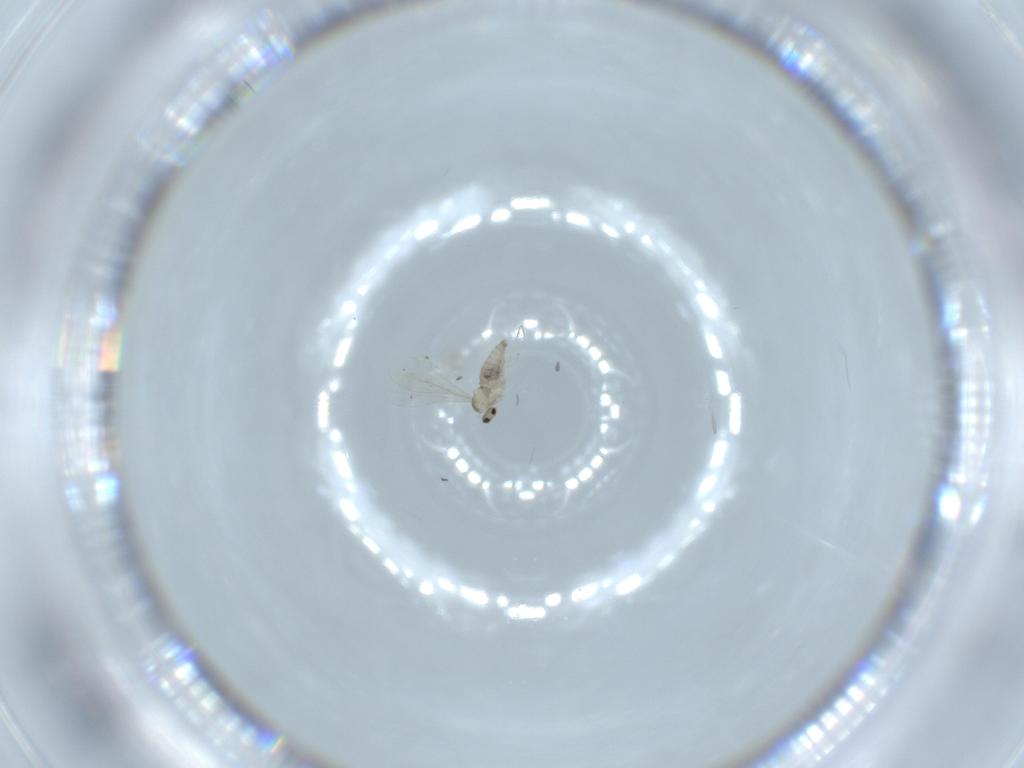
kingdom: Animalia
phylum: Arthropoda
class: Insecta
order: Diptera
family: Cecidomyiidae
